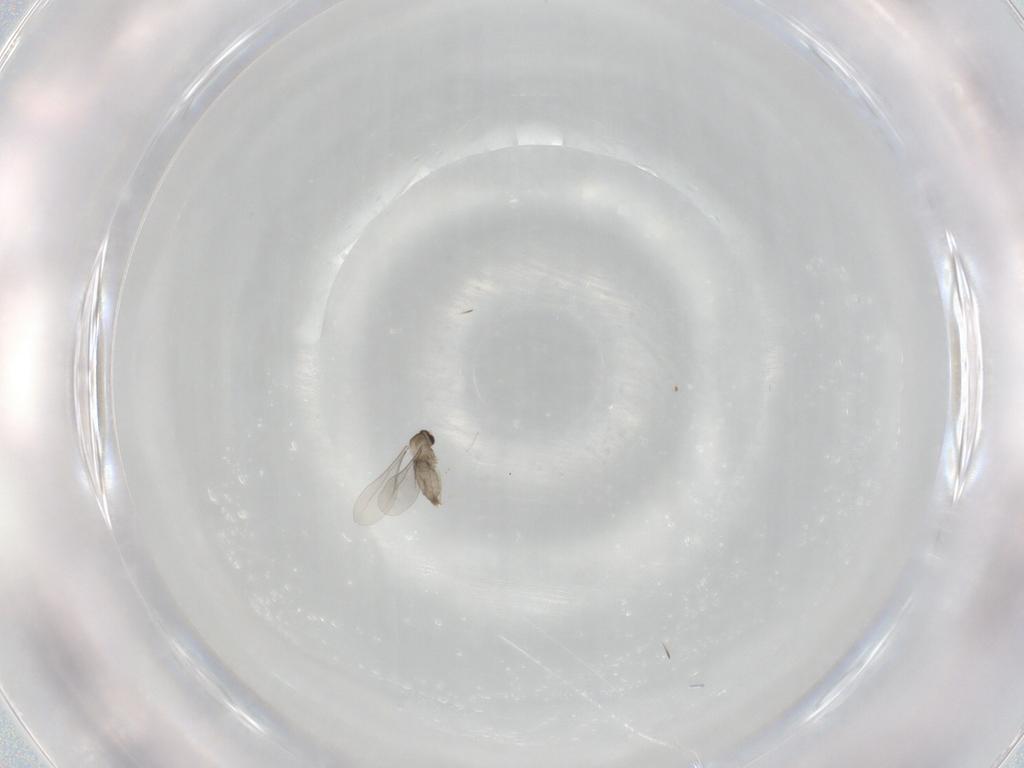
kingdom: Animalia
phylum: Arthropoda
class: Insecta
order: Diptera
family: Psychodidae
